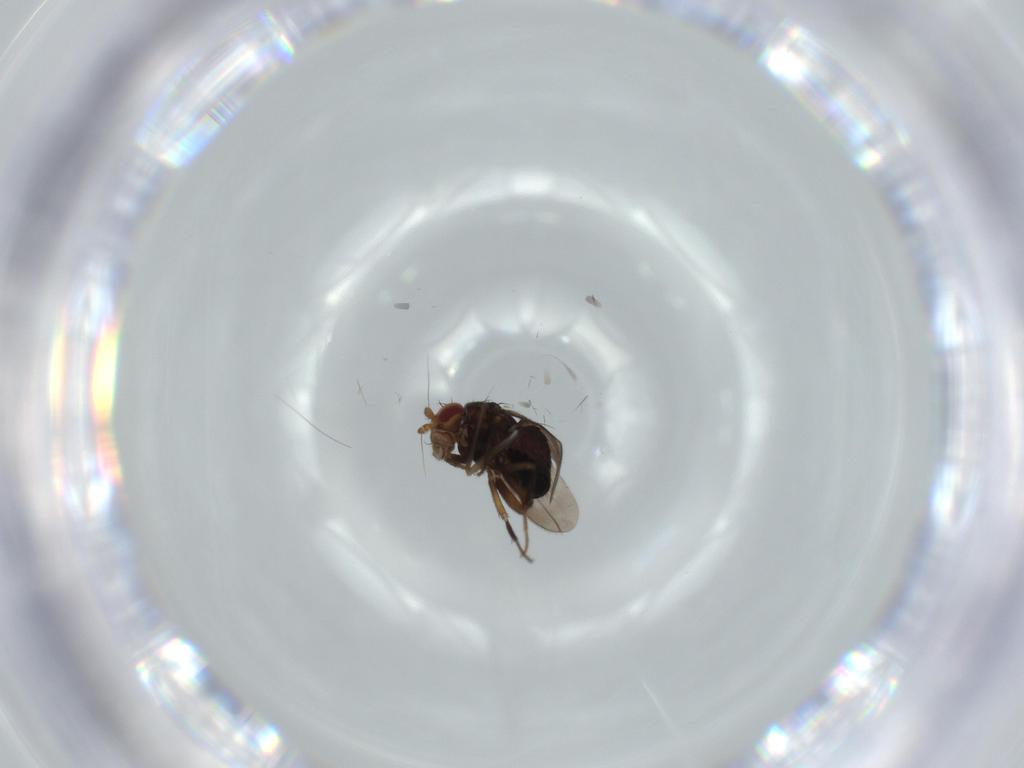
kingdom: Animalia
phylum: Arthropoda
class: Insecta
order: Diptera
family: Sphaeroceridae
